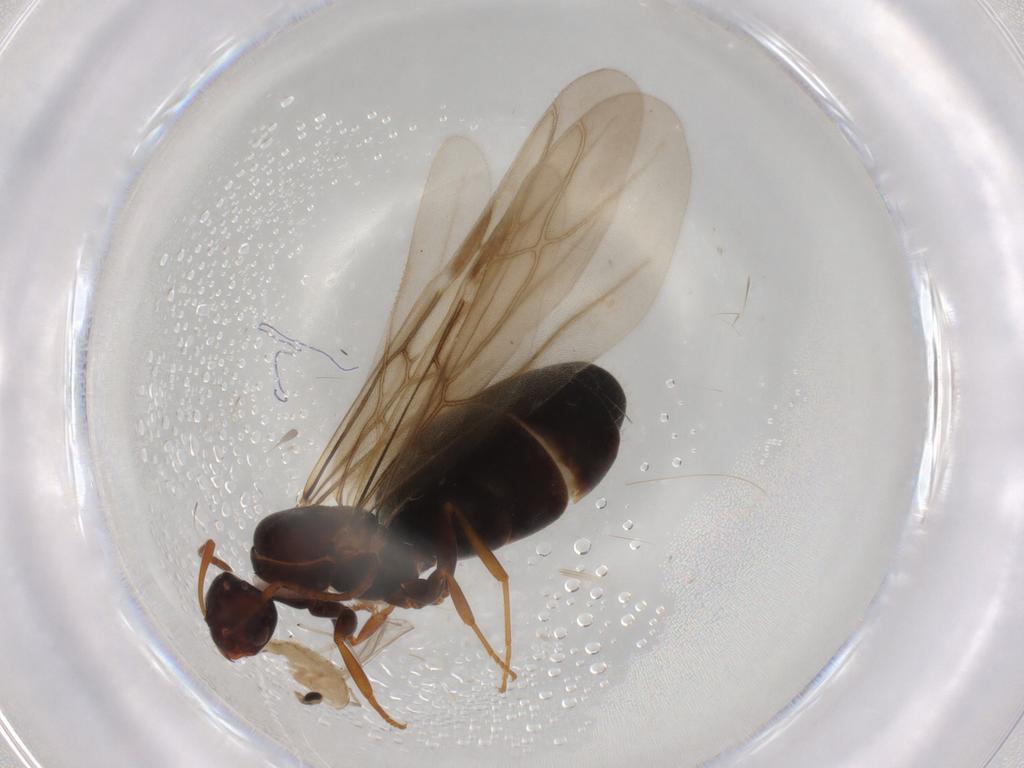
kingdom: Animalia
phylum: Arthropoda
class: Insecta
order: Hymenoptera
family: Formicidae
